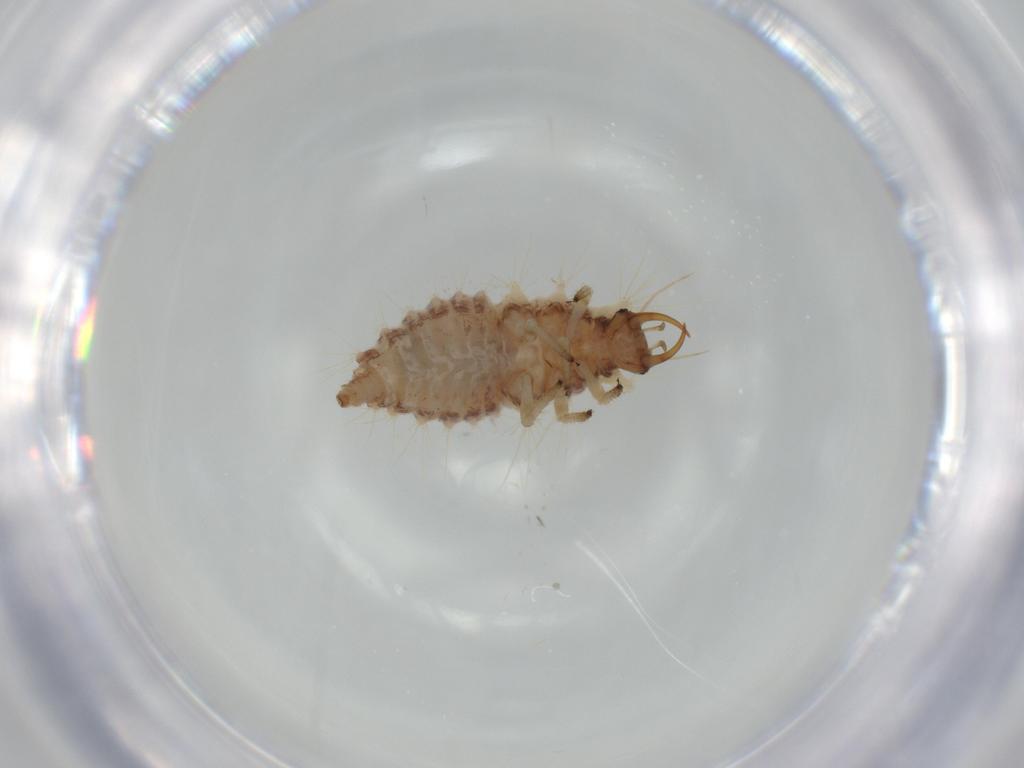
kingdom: Animalia
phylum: Arthropoda
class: Insecta
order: Neuroptera
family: Chrysopidae
